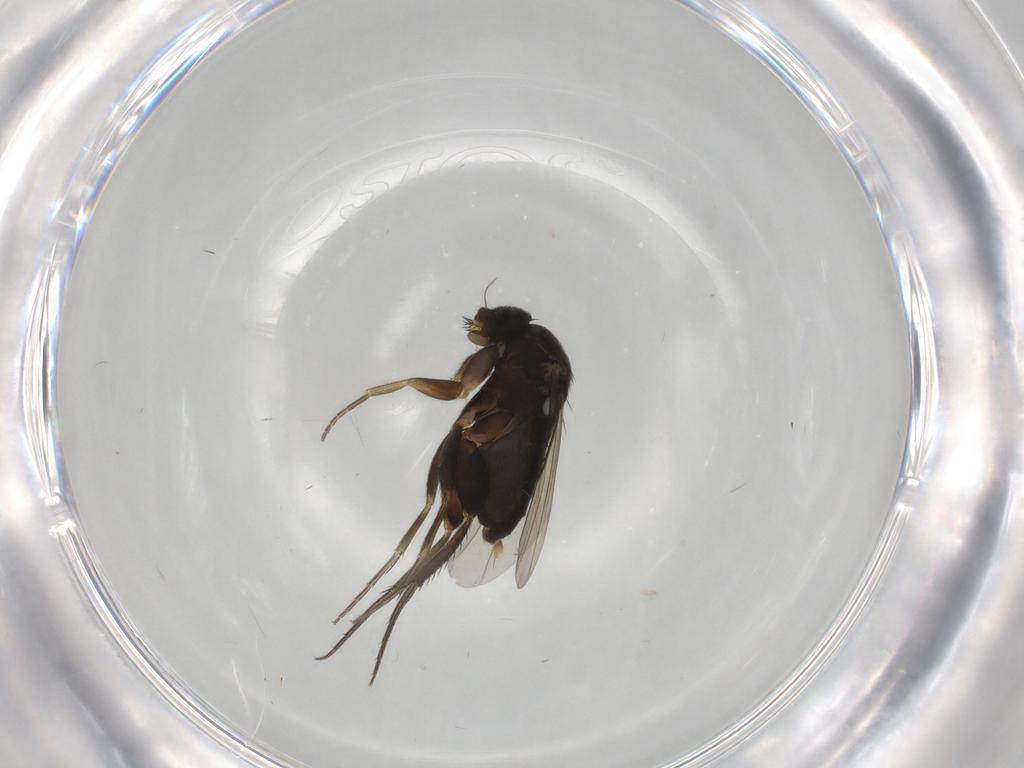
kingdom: Animalia
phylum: Arthropoda
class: Insecta
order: Diptera
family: Phoridae
